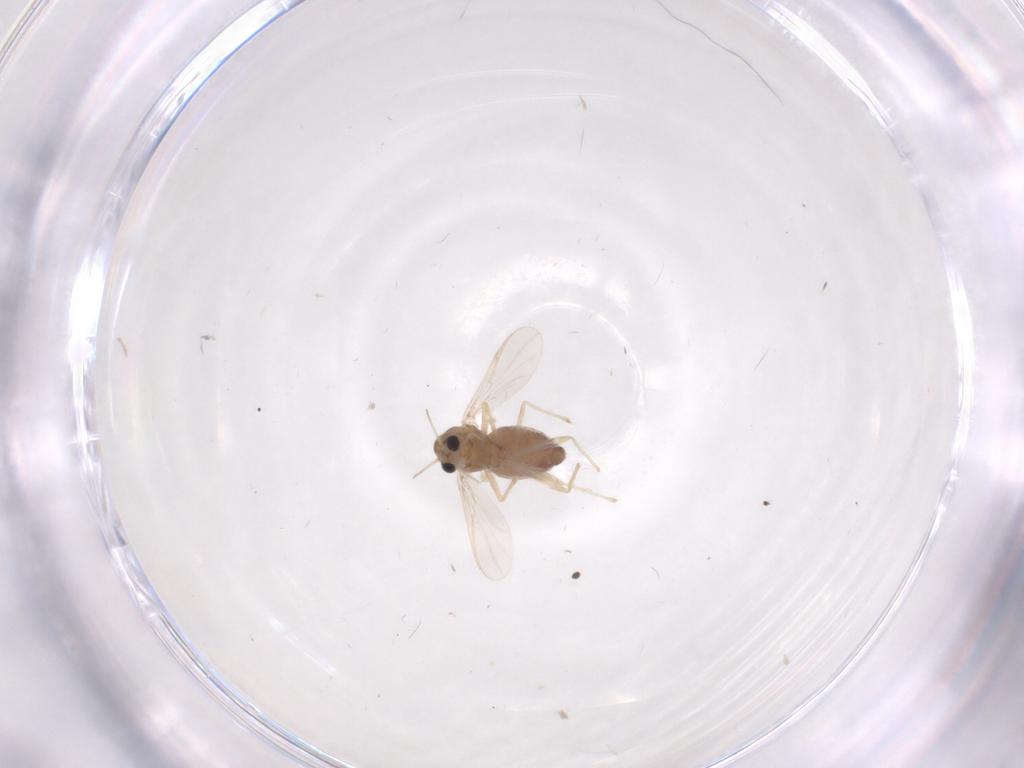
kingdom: Animalia
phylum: Arthropoda
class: Insecta
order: Diptera
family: Chironomidae
